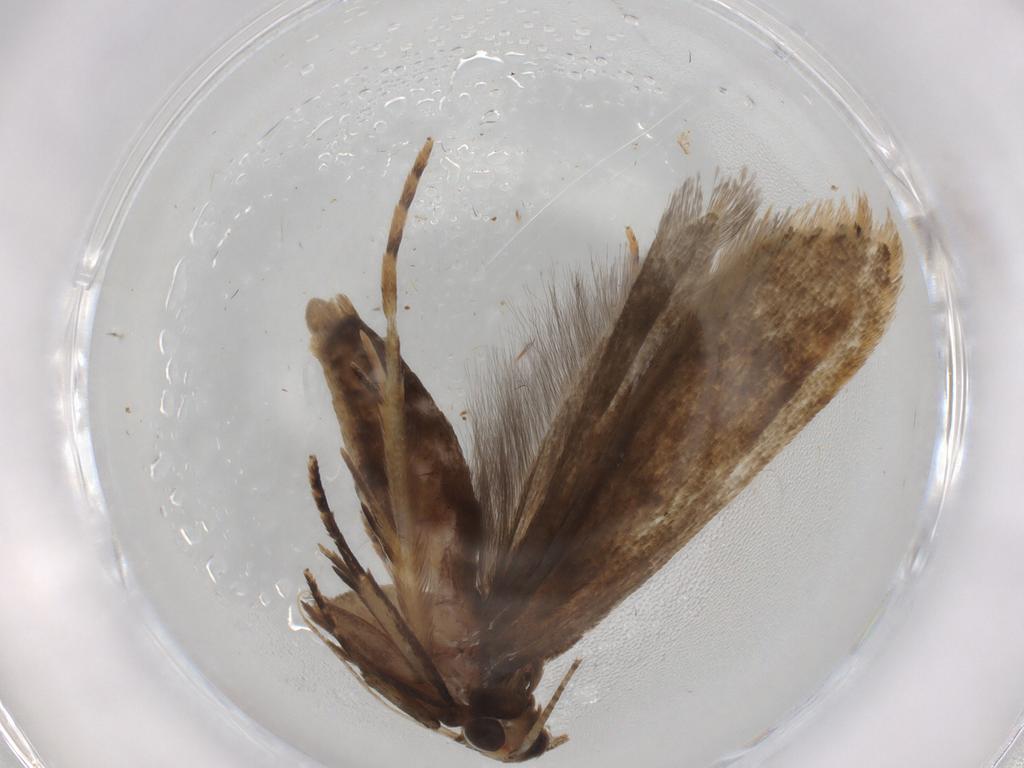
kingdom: Animalia
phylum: Arthropoda
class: Insecta
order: Lepidoptera
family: Gelechiidae
